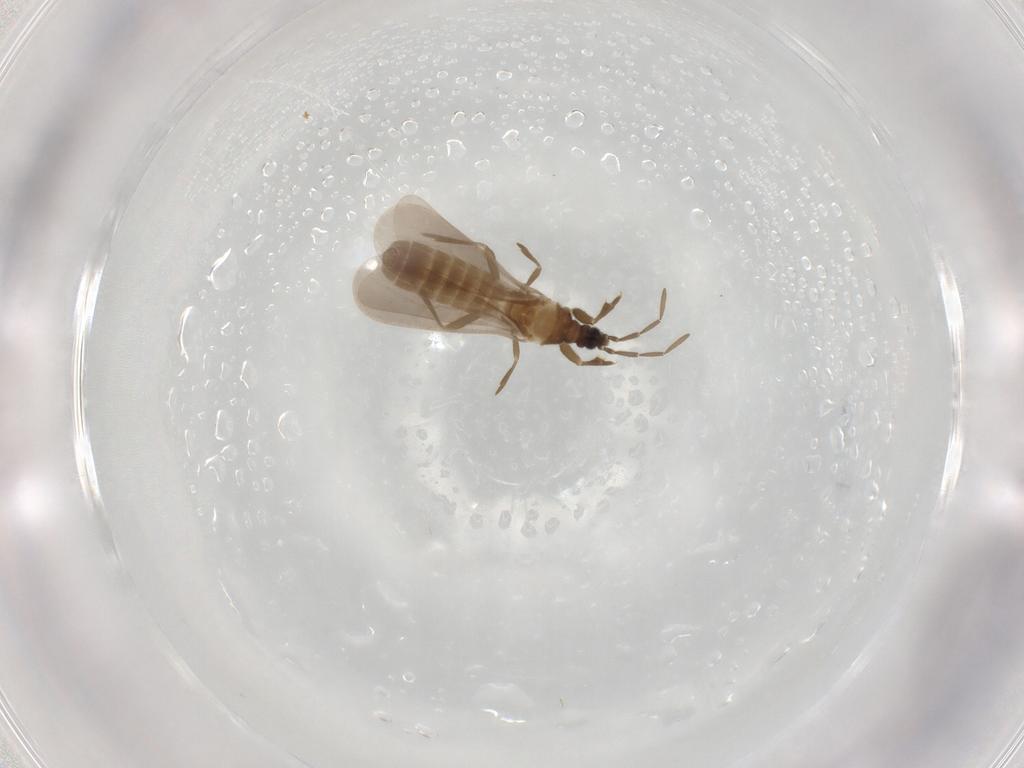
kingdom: Animalia
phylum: Arthropoda
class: Insecta
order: Hemiptera
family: Enicocephalidae
